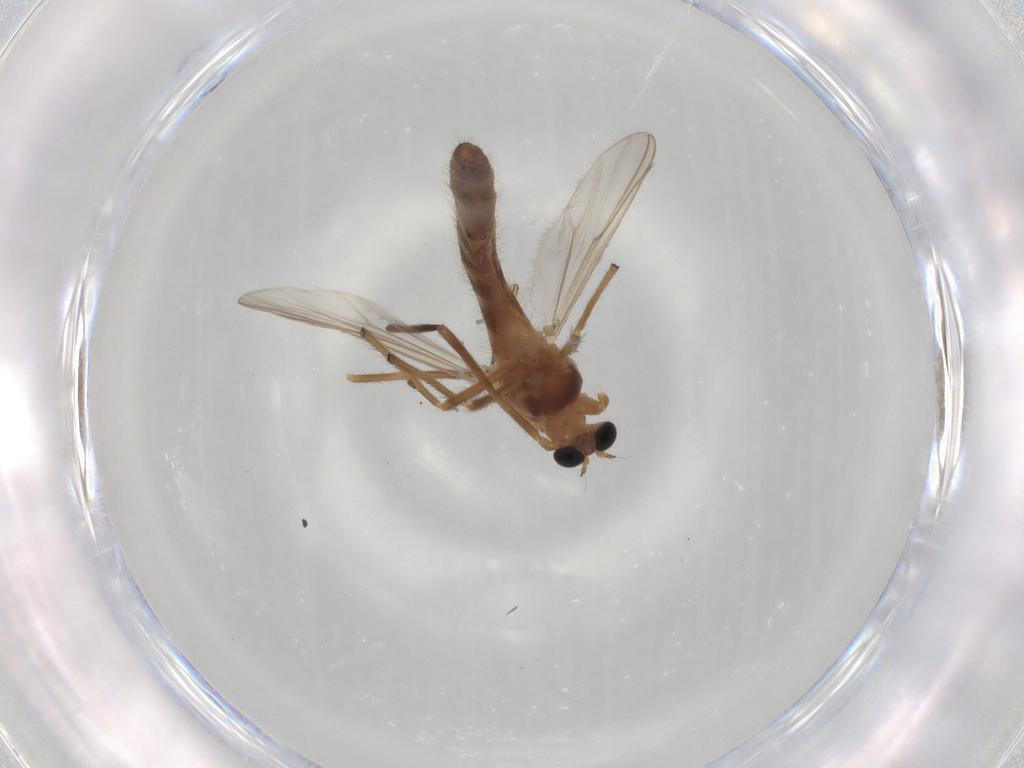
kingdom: Animalia
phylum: Arthropoda
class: Insecta
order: Diptera
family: Chironomidae
